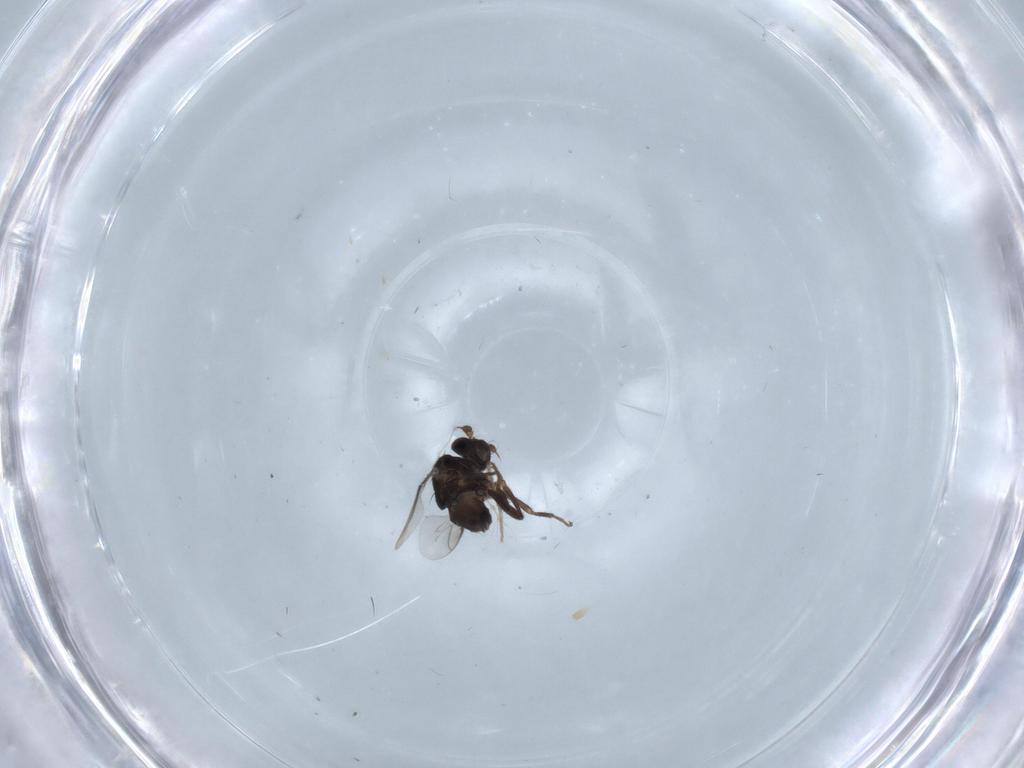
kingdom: Animalia
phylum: Arthropoda
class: Insecta
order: Diptera
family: Sphaeroceridae
